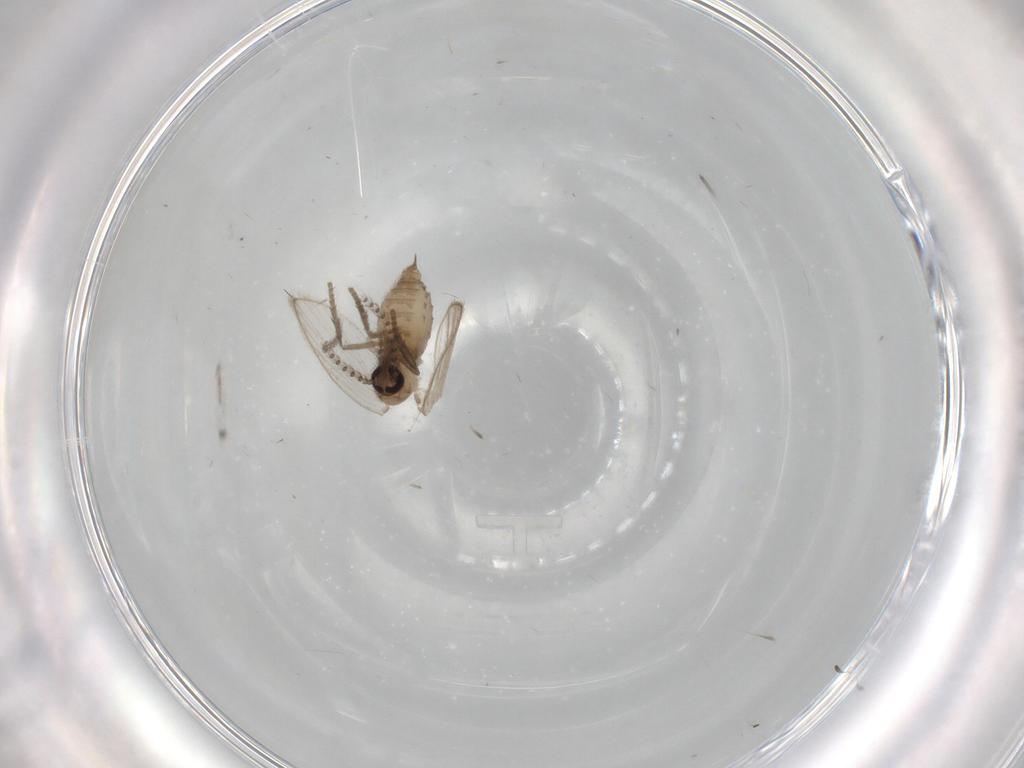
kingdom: Animalia
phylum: Arthropoda
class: Insecta
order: Diptera
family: Psychodidae
